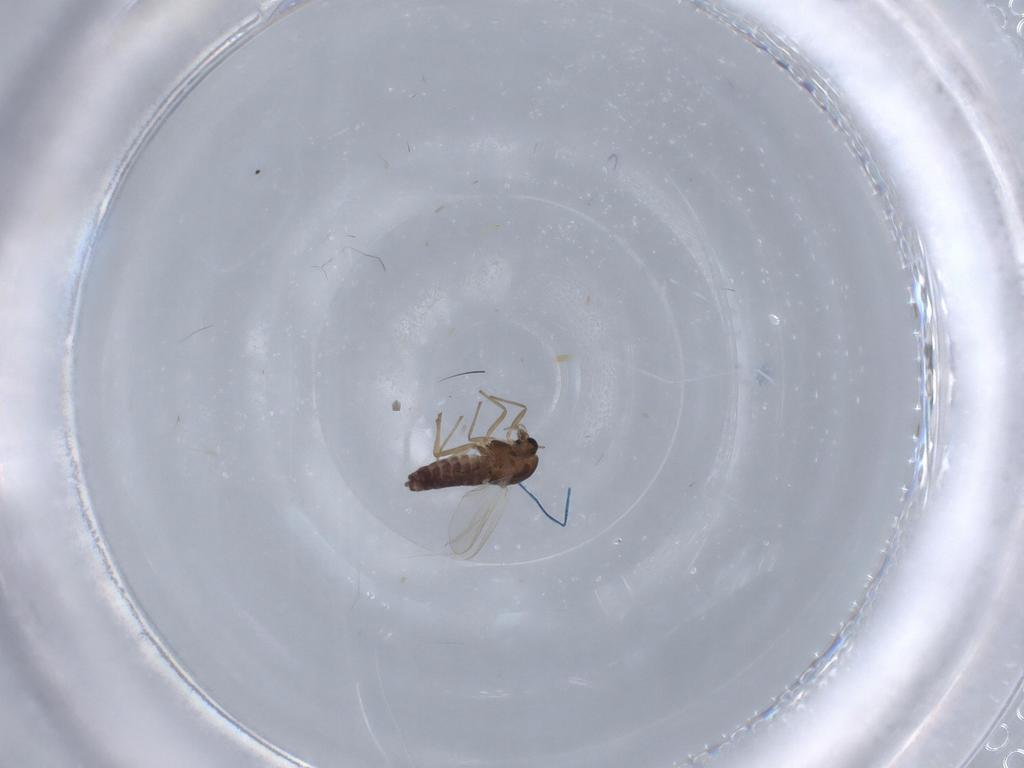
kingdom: Animalia
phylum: Arthropoda
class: Insecta
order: Diptera
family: Chironomidae
